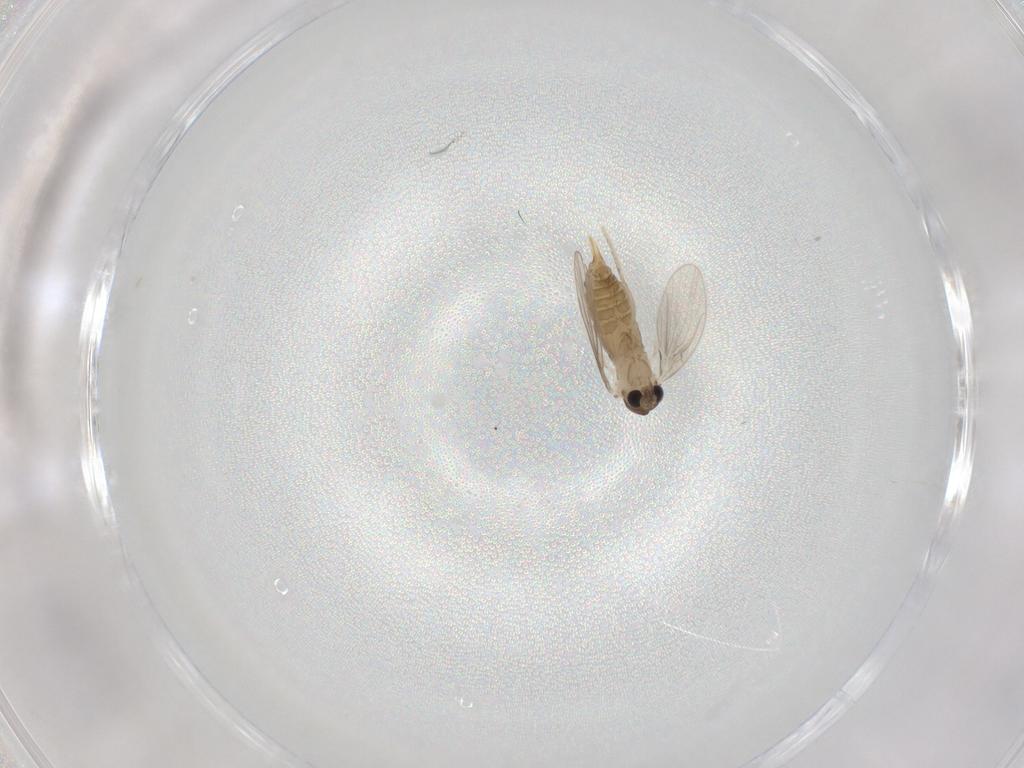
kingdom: Animalia
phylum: Arthropoda
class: Insecta
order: Diptera
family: Psychodidae
